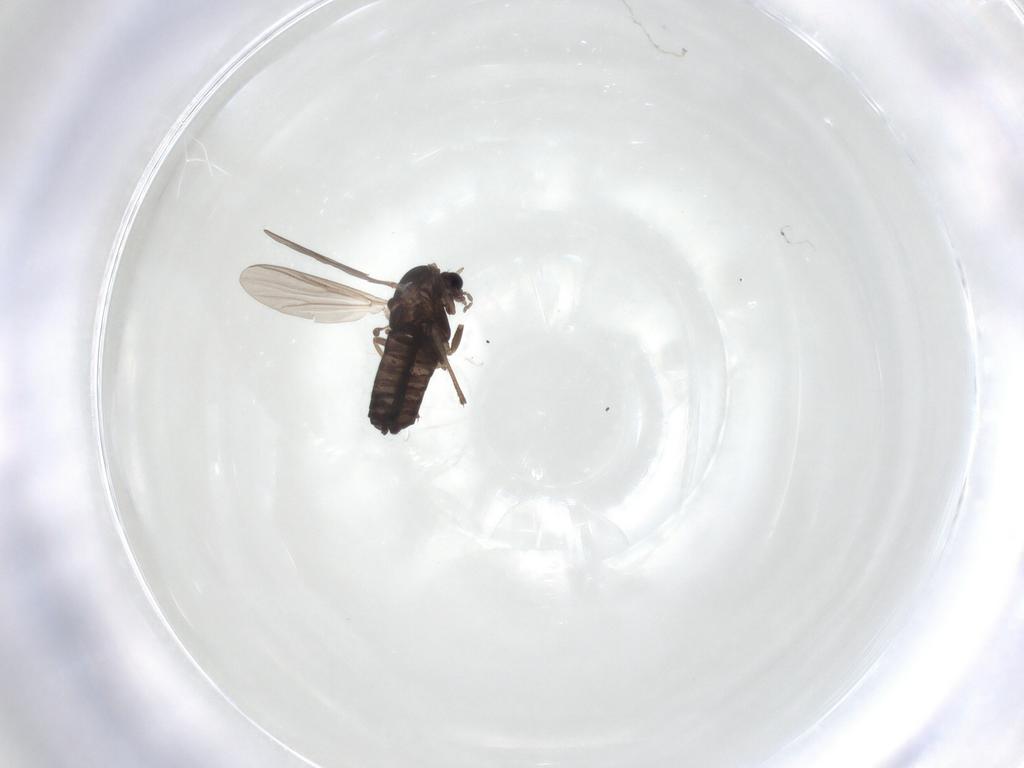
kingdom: Animalia
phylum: Arthropoda
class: Insecta
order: Diptera
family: Chironomidae
